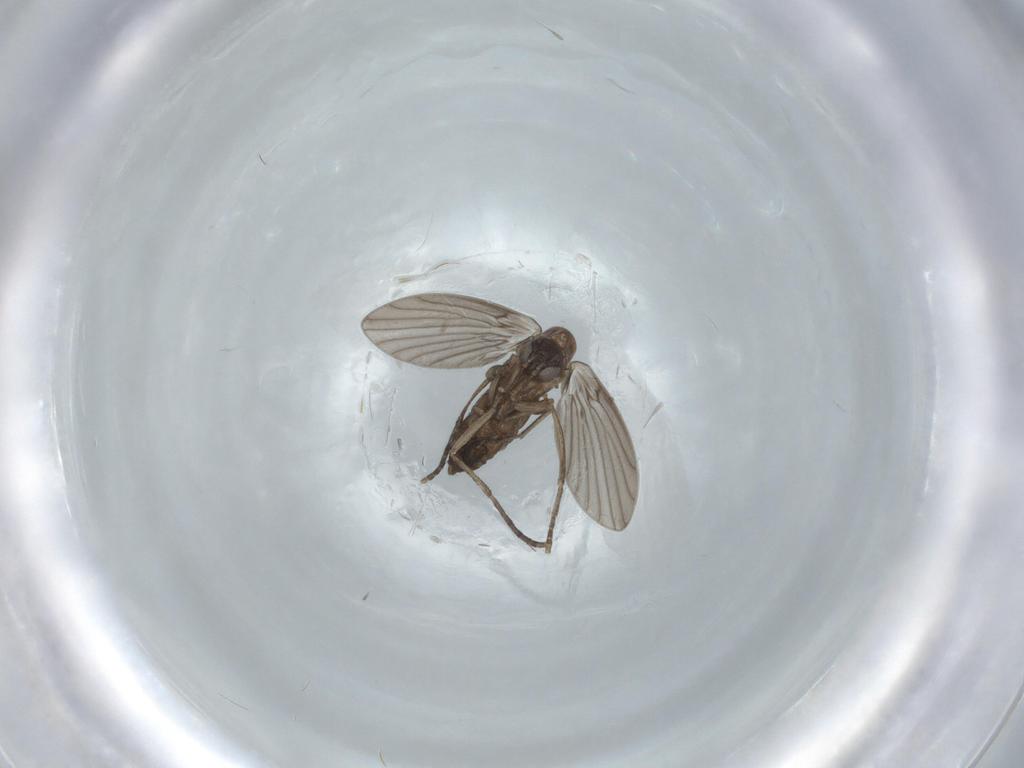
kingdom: Animalia
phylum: Arthropoda
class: Insecta
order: Diptera
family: Psychodidae
